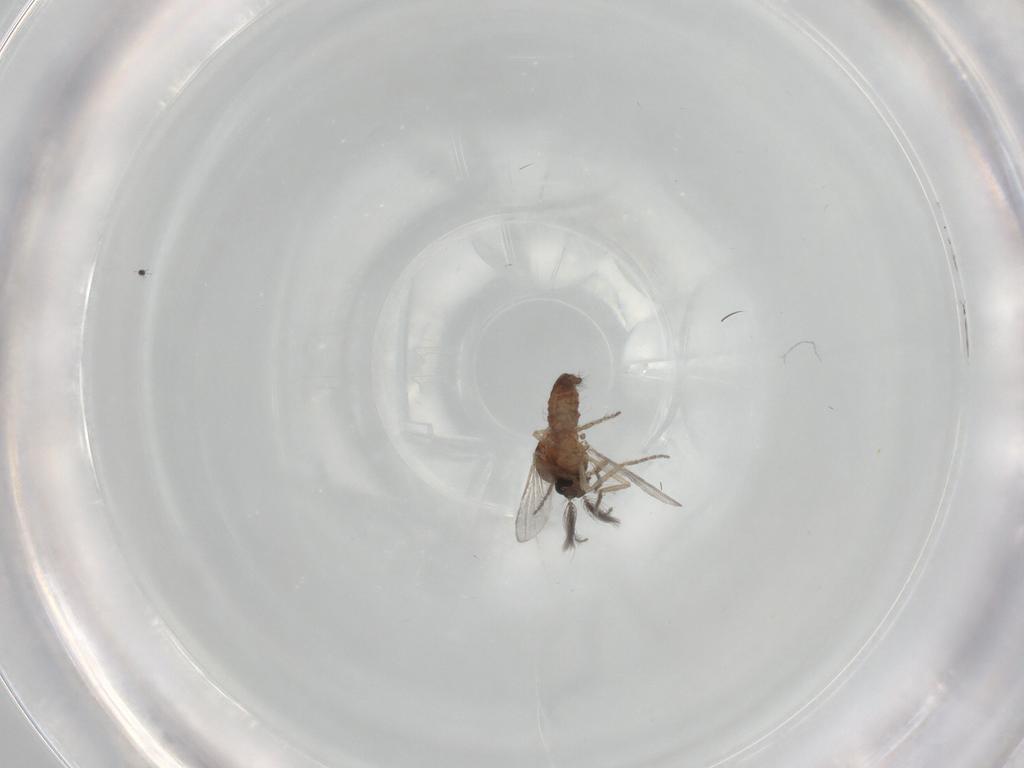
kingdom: Animalia
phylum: Arthropoda
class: Insecta
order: Diptera
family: Ceratopogonidae
